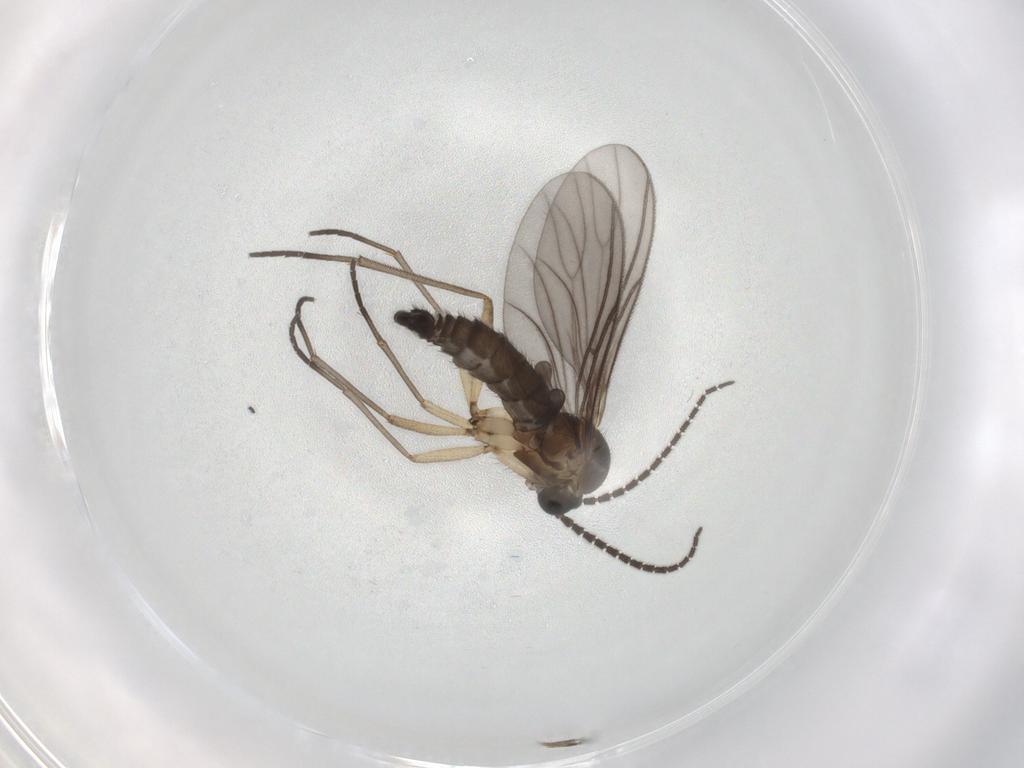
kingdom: Animalia
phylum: Arthropoda
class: Insecta
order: Diptera
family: Sciaridae
